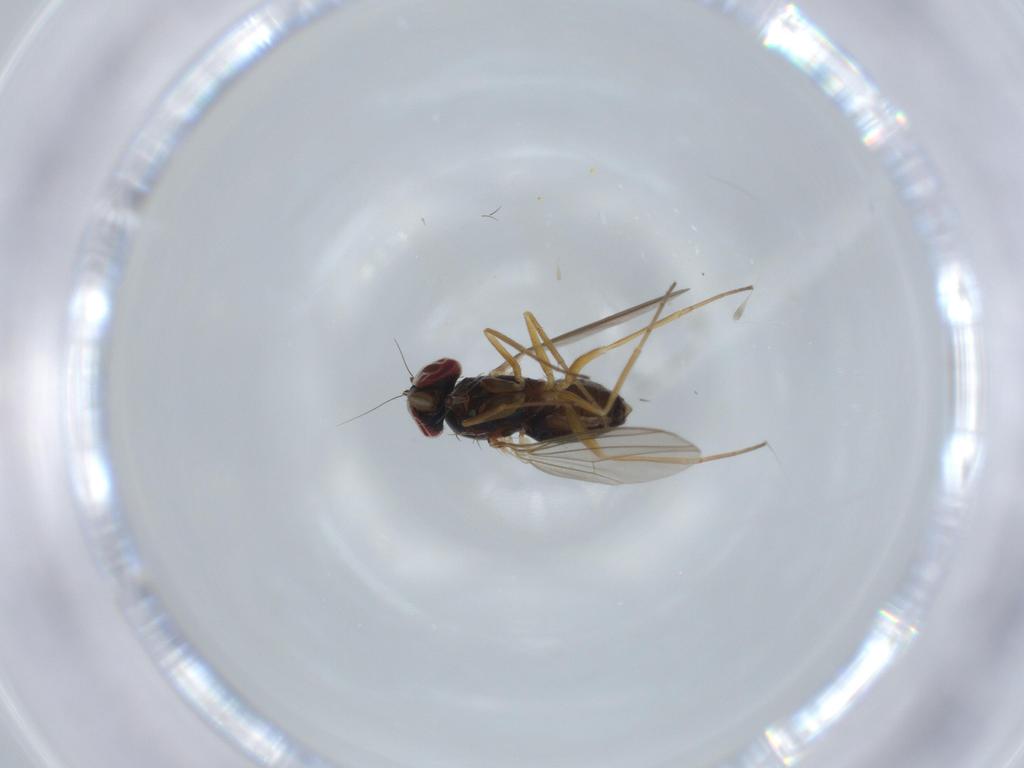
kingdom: Animalia
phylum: Arthropoda
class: Insecta
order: Diptera
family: Dolichopodidae
